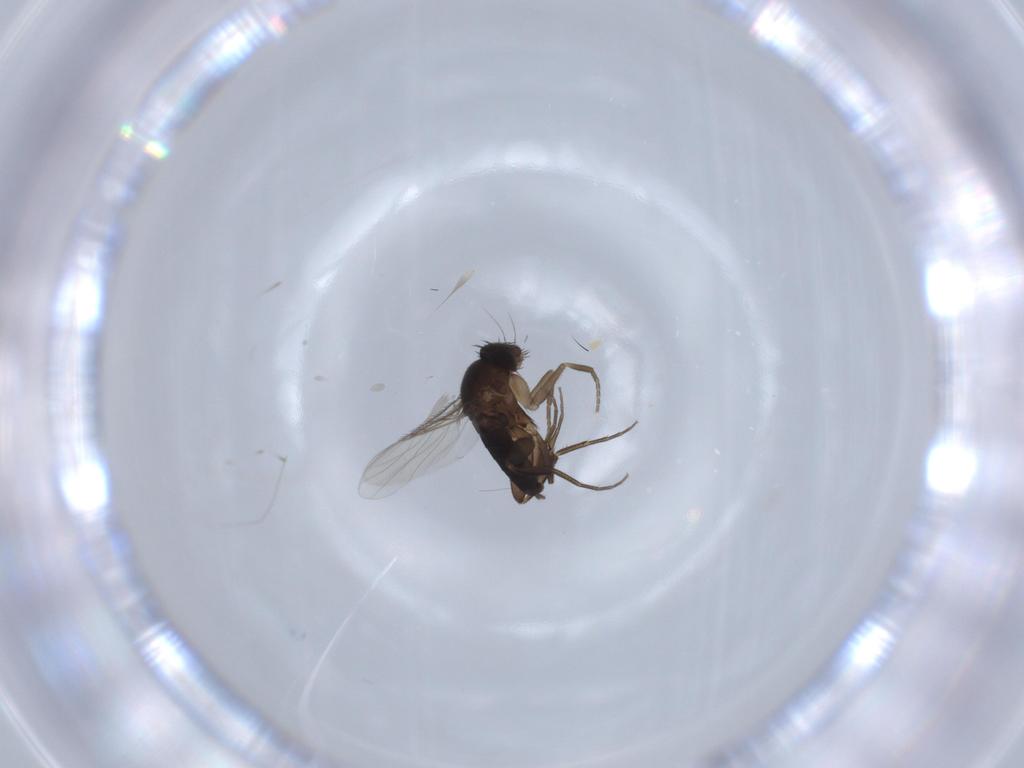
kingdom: Animalia
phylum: Arthropoda
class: Insecta
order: Diptera
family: Phoridae
